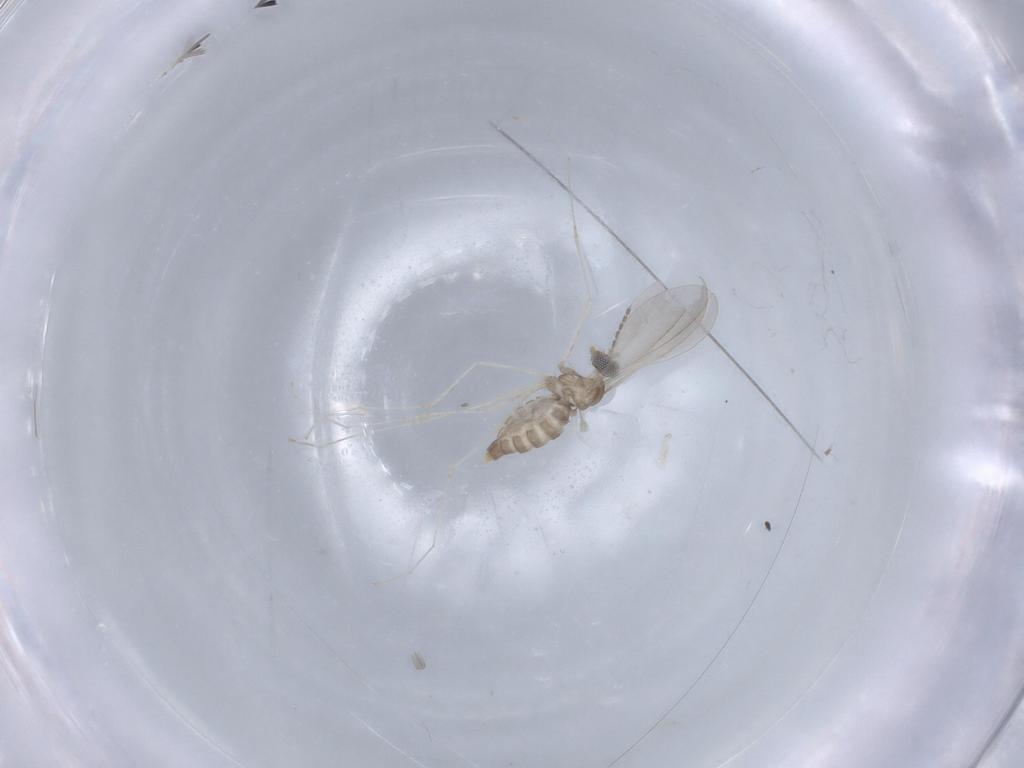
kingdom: Animalia
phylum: Arthropoda
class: Insecta
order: Diptera
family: Cecidomyiidae
